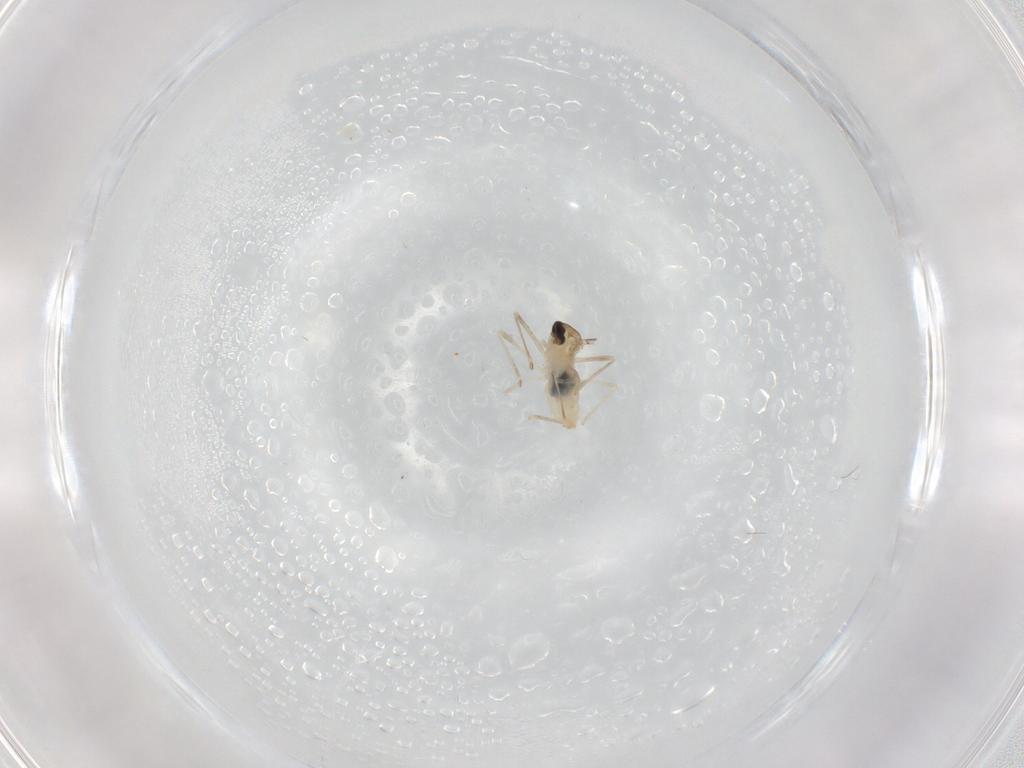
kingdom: Animalia
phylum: Arthropoda
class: Insecta
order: Diptera
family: Cecidomyiidae
